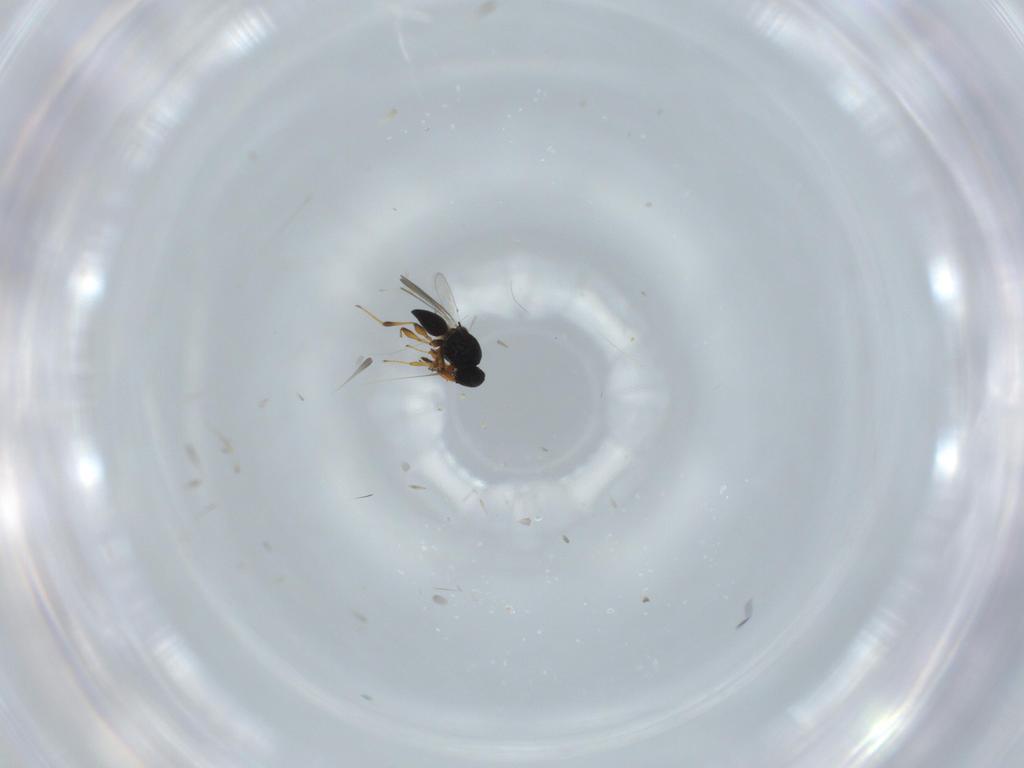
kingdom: Animalia
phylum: Arthropoda
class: Insecta
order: Hymenoptera
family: Platygastridae
